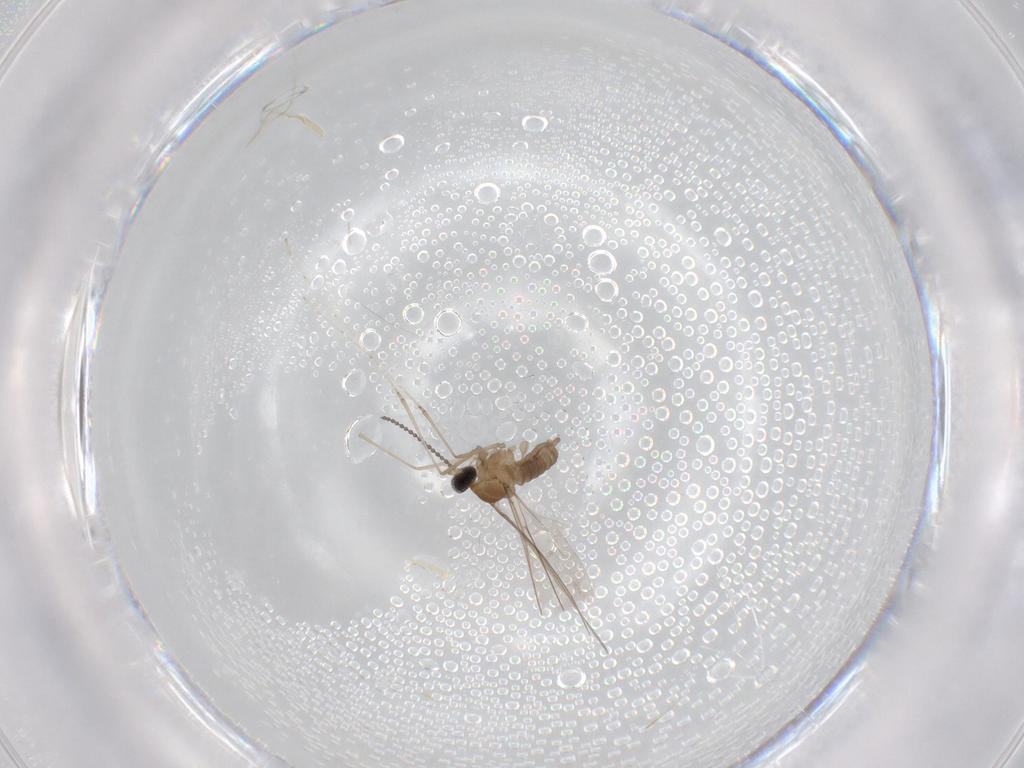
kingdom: Animalia
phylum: Arthropoda
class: Insecta
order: Diptera
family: Cecidomyiidae
